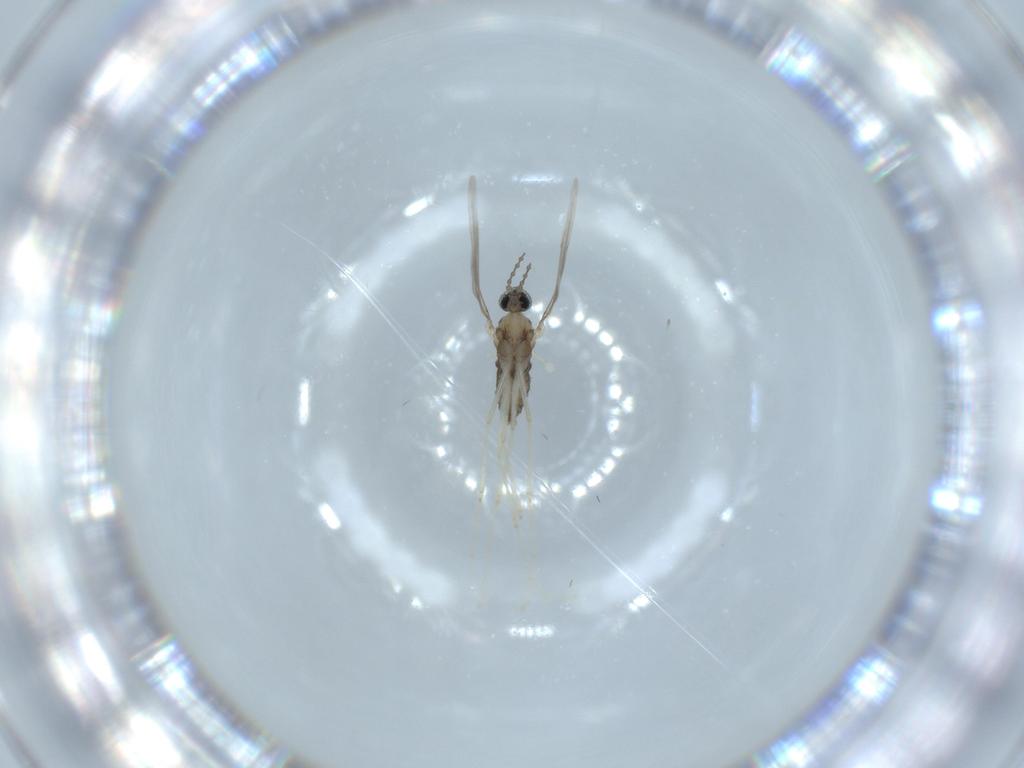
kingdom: Animalia
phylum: Arthropoda
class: Insecta
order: Diptera
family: Cecidomyiidae
